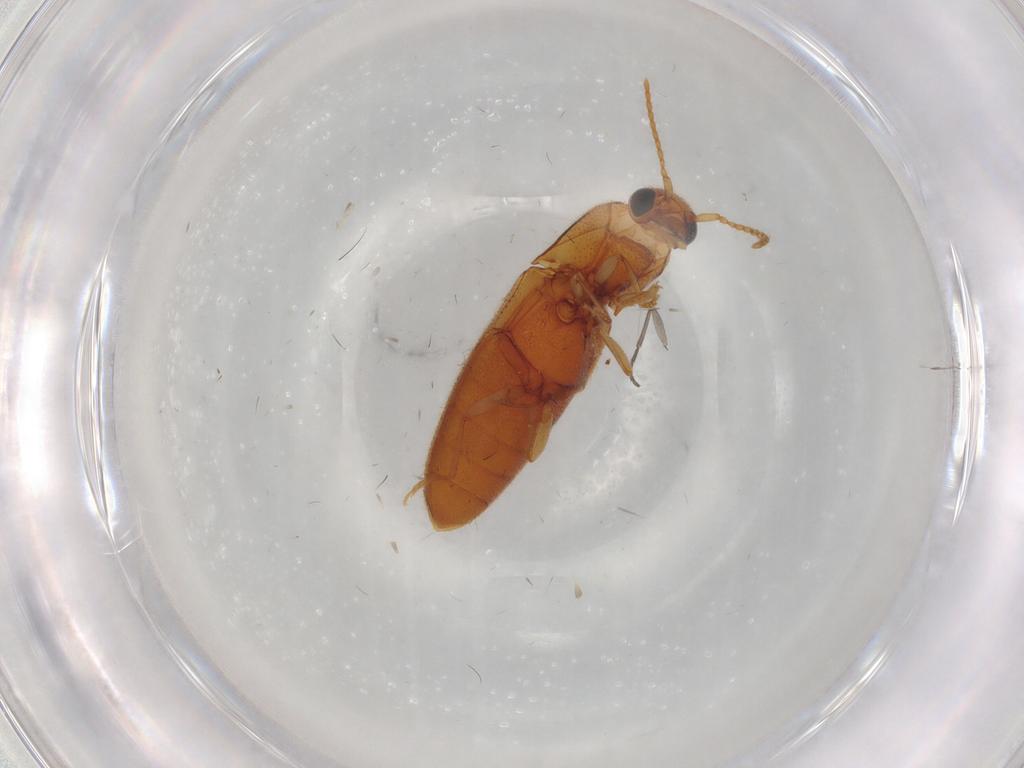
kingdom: Animalia
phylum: Arthropoda
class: Insecta
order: Coleoptera
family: Elateridae
